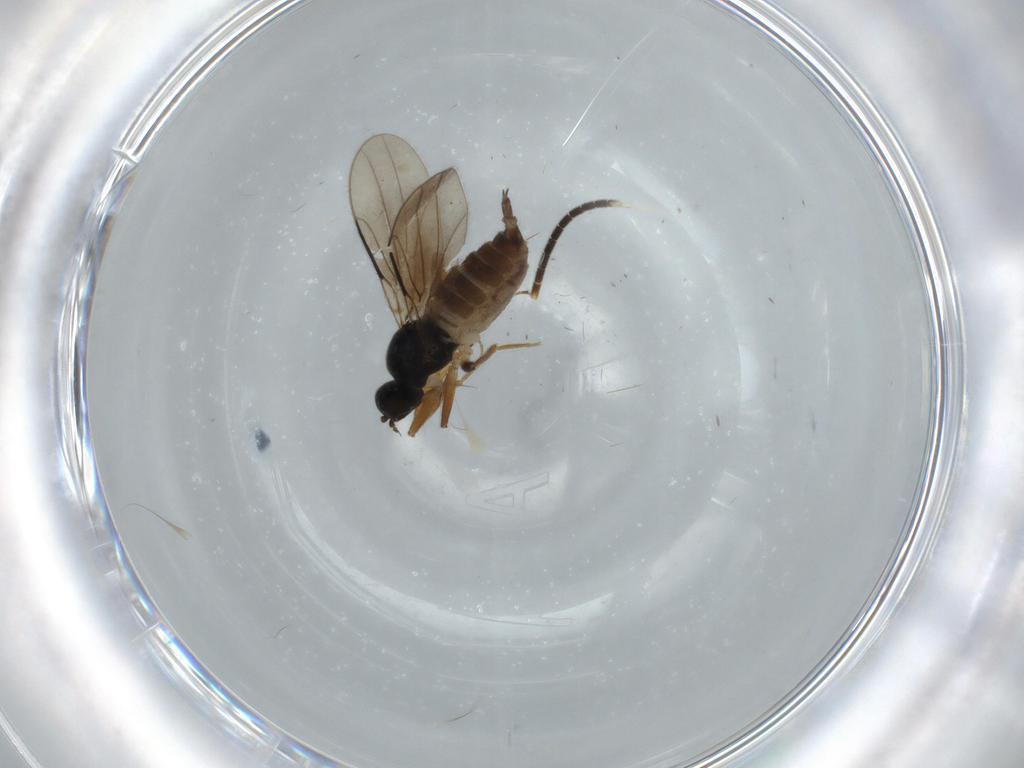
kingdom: Animalia
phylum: Arthropoda
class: Insecta
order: Diptera
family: Mycetophilidae
